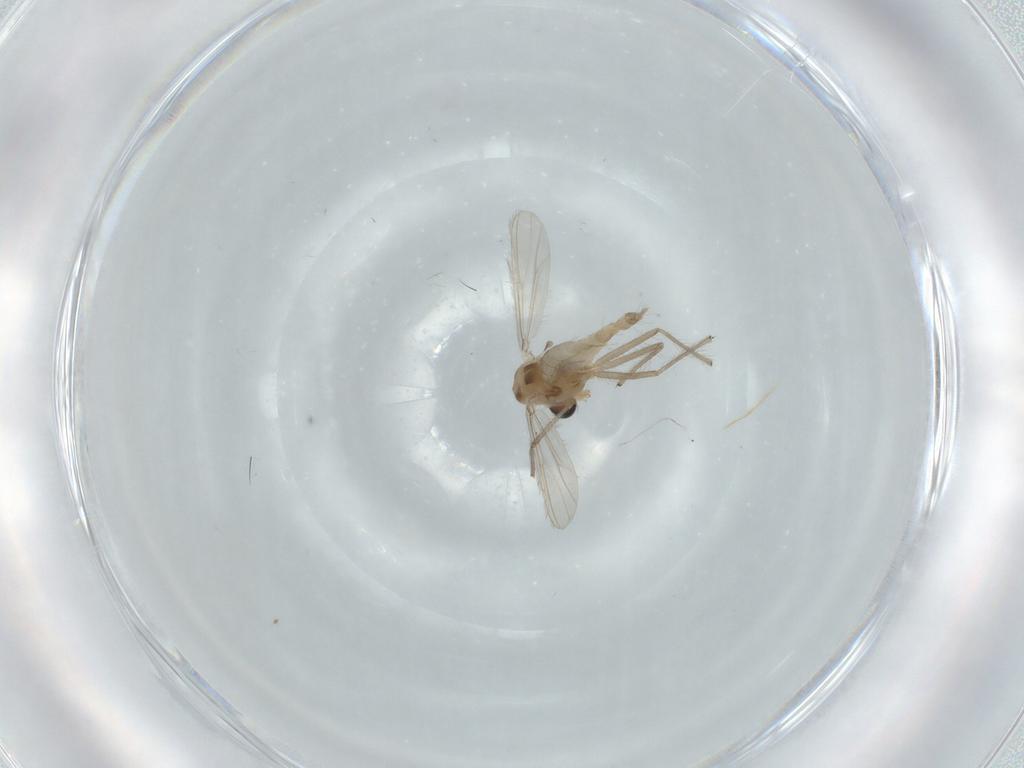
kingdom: Animalia
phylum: Arthropoda
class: Insecta
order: Diptera
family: Chironomidae
